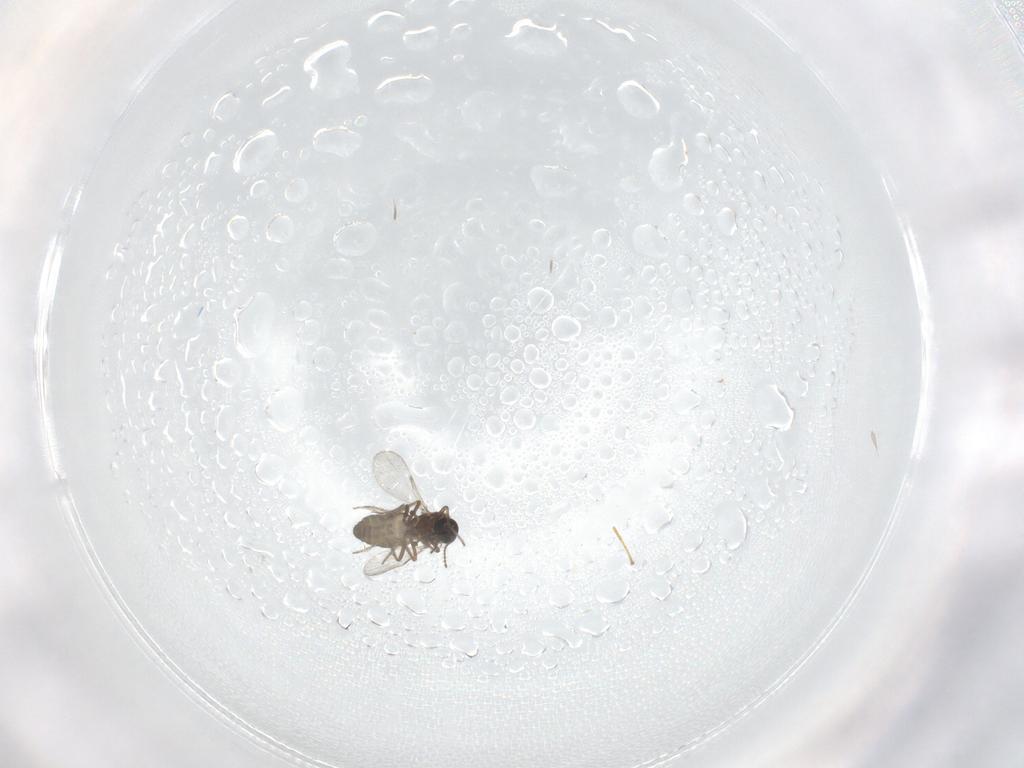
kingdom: Animalia
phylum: Arthropoda
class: Insecta
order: Diptera
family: Ceratopogonidae
